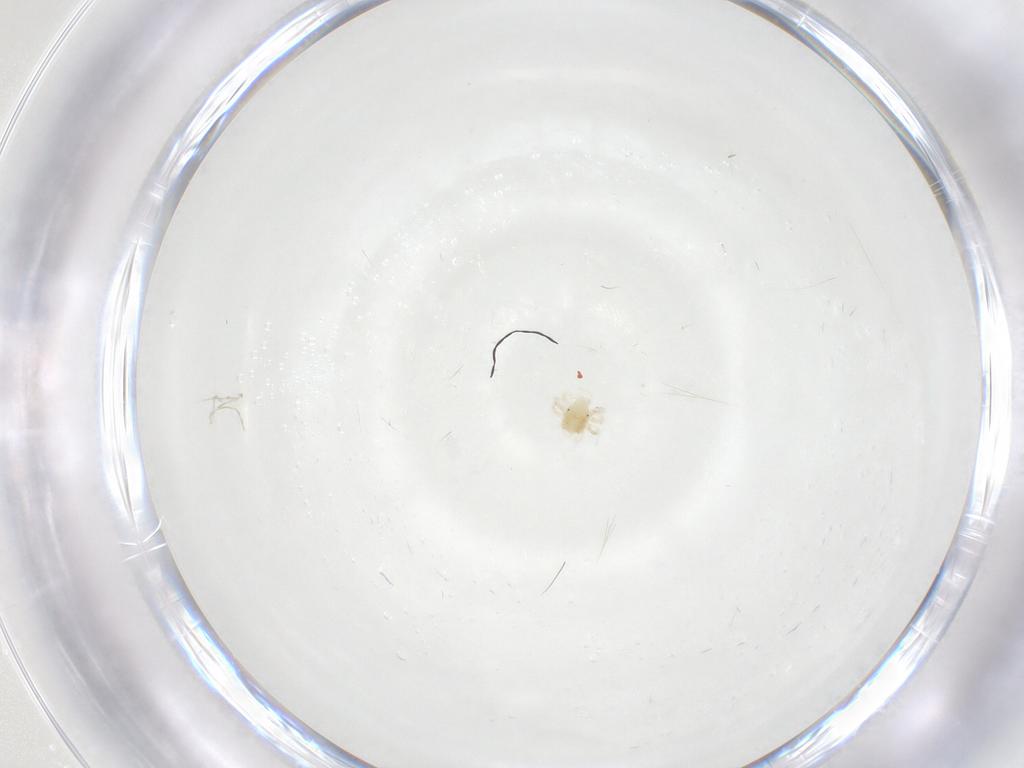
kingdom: Animalia
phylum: Arthropoda
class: Arachnida
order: Trombidiformes
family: Anystidae
